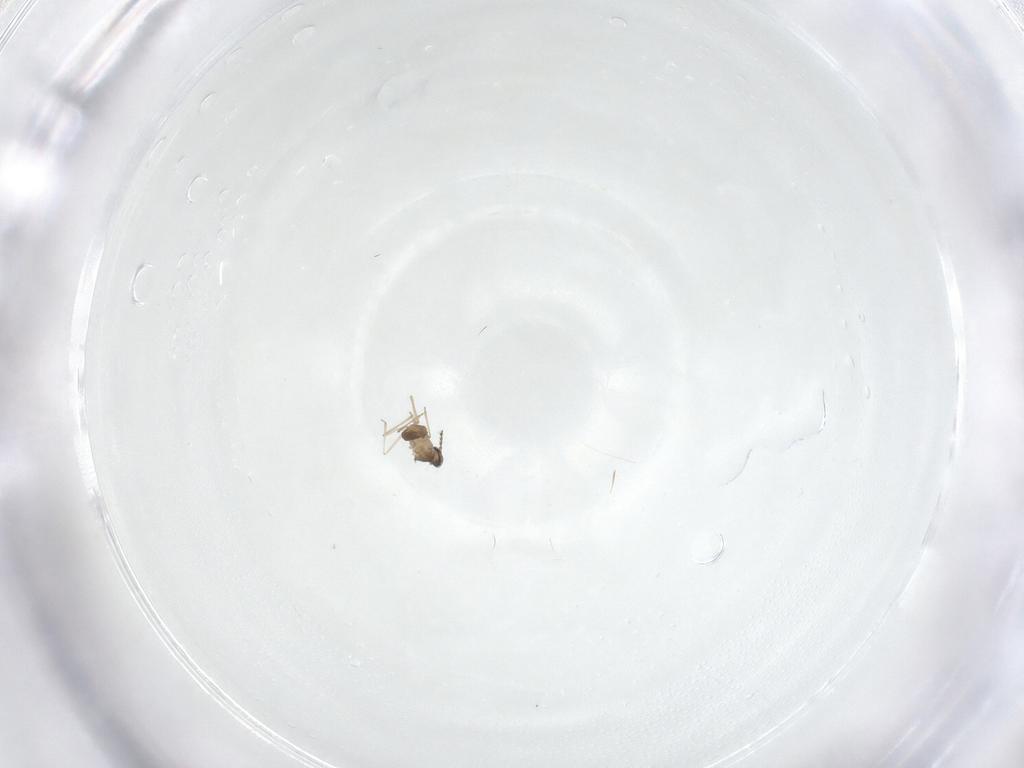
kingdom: Animalia
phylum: Arthropoda
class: Insecta
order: Diptera
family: Cecidomyiidae
